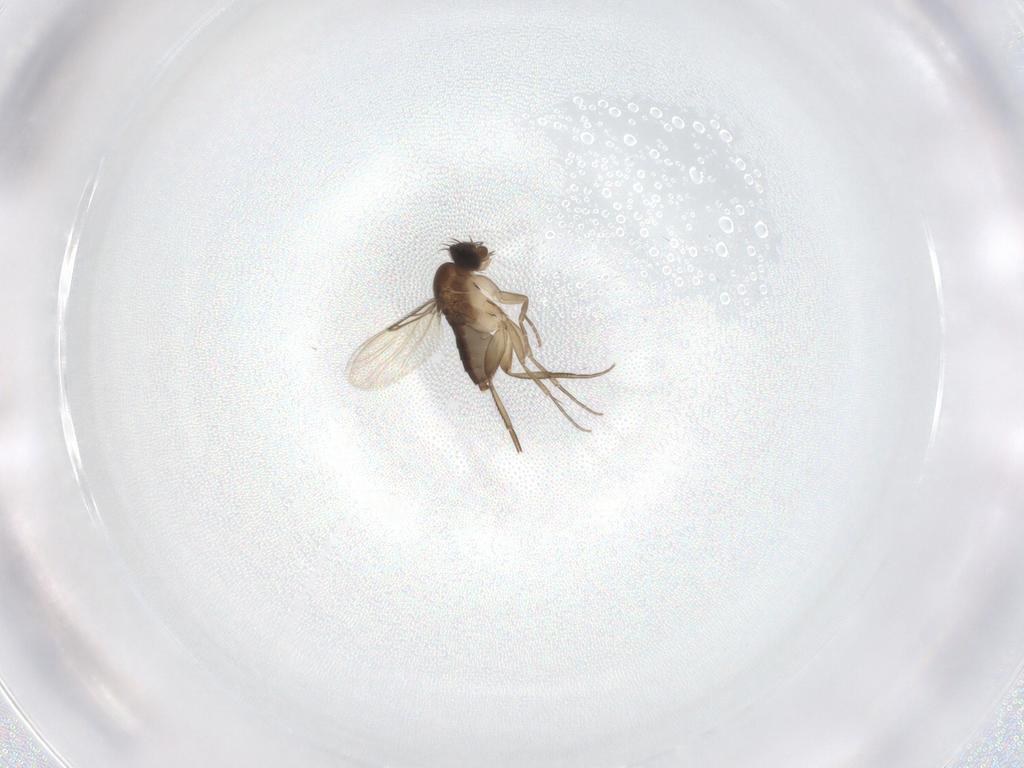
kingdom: Animalia
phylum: Arthropoda
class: Insecta
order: Diptera
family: Phoridae
